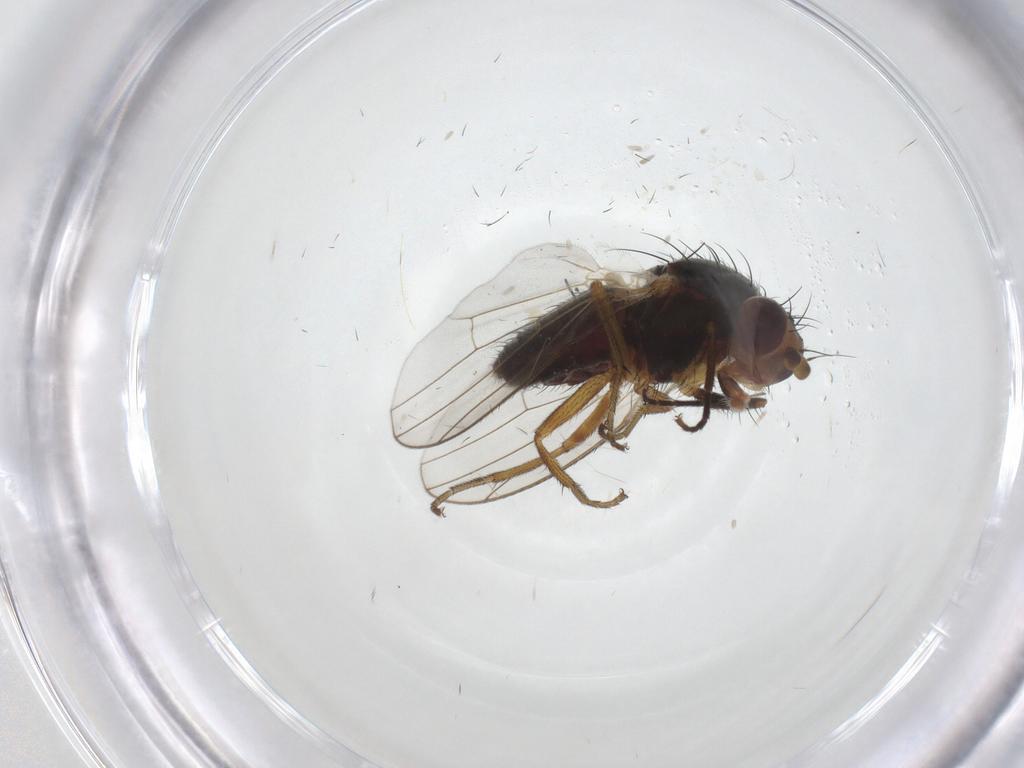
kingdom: Animalia
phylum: Arthropoda
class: Insecta
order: Diptera
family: Heleomyzidae
